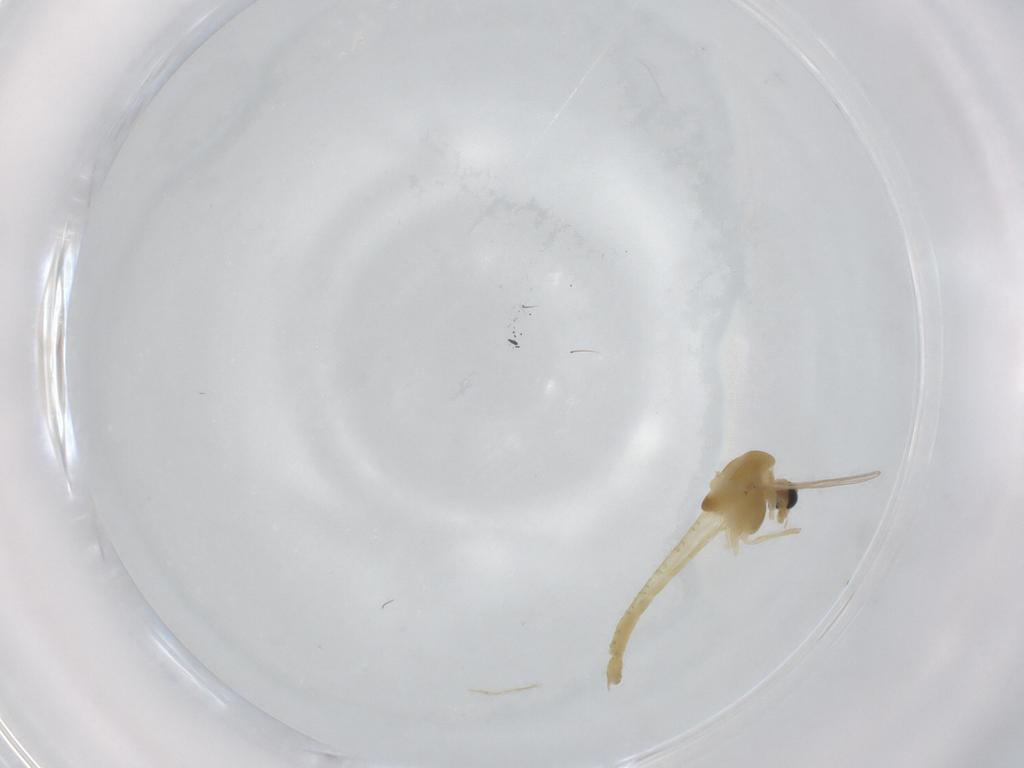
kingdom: Animalia
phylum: Arthropoda
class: Insecta
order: Diptera
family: Chironomidae
